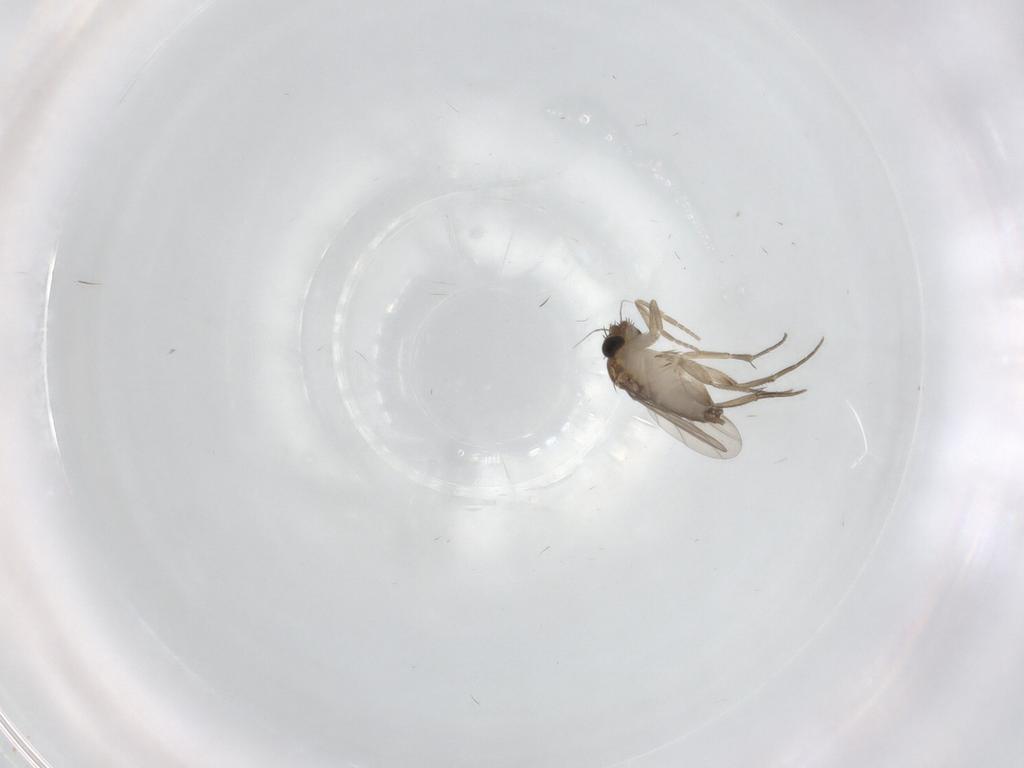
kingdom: Animalia
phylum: Arthropoda
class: Insecta
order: Diptera
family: Phoridae
